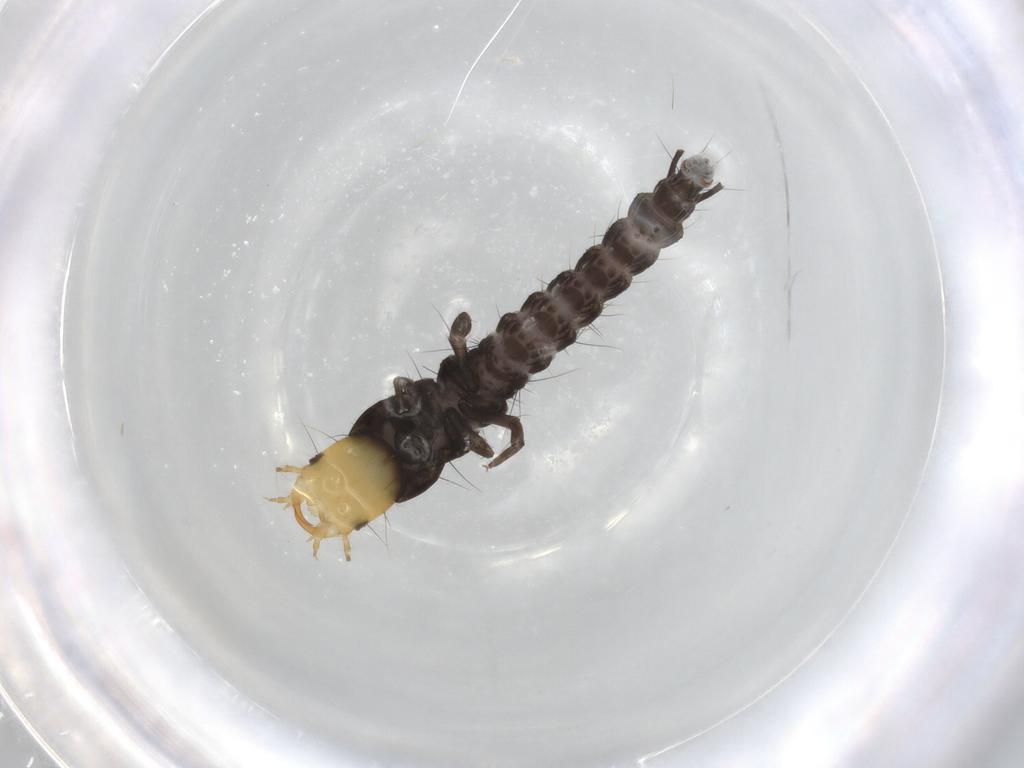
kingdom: Animalia
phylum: Arthropoda
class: Insecta
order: Coleoptera
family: Carabidae
